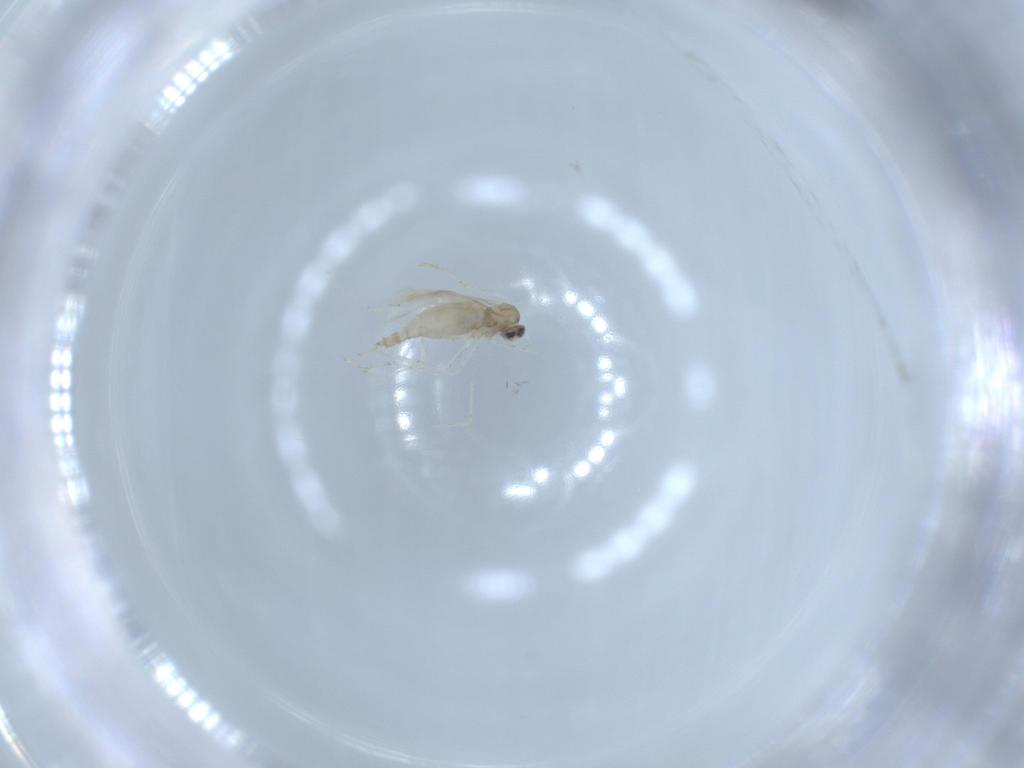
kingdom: Animalia
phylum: Arthropoda
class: Insecta
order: Diptera
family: Cecidomyiidae
